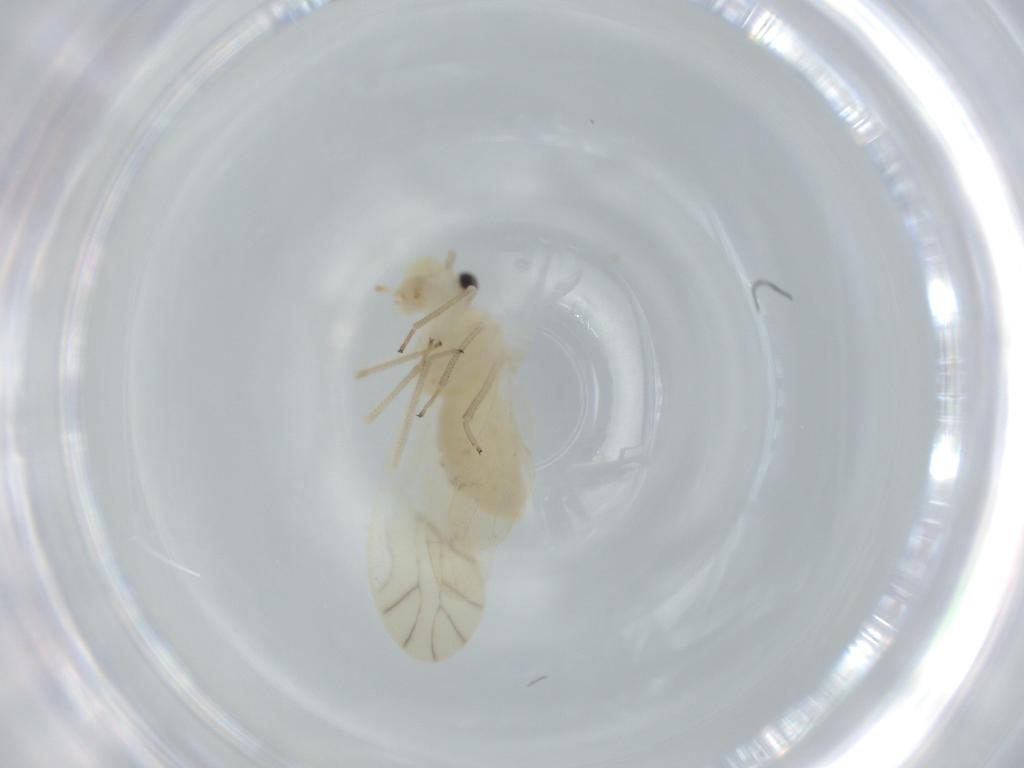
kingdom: Animalia
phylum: Arthropoda
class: Insecta
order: Psocodea
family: Caeciliusidae
